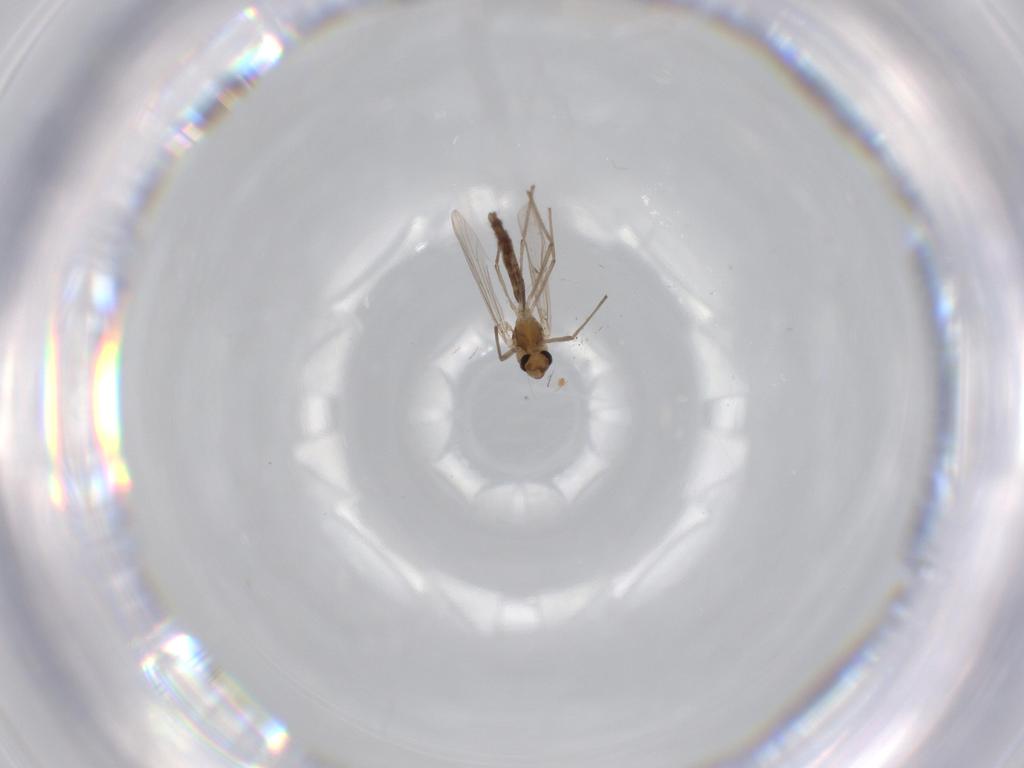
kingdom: Animalia
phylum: Arthropoda
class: Insecta
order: Diptera
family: Chironomidae
